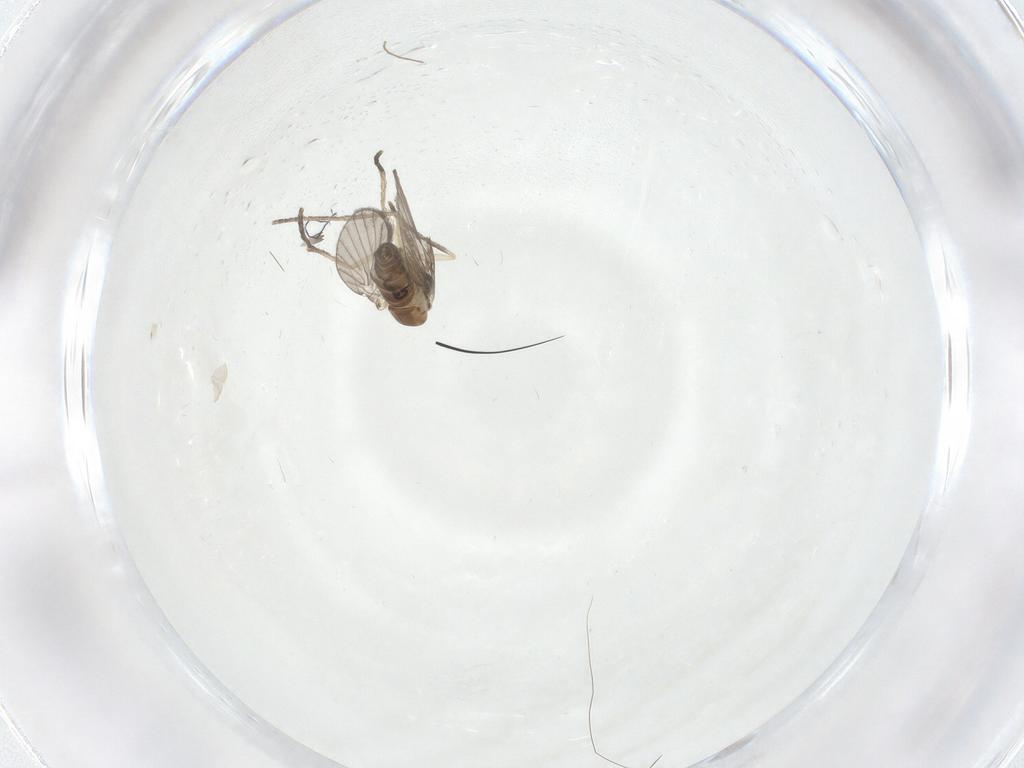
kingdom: Animalia
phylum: Arthropoda
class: Insecta
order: Diptera
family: Chironomidae
